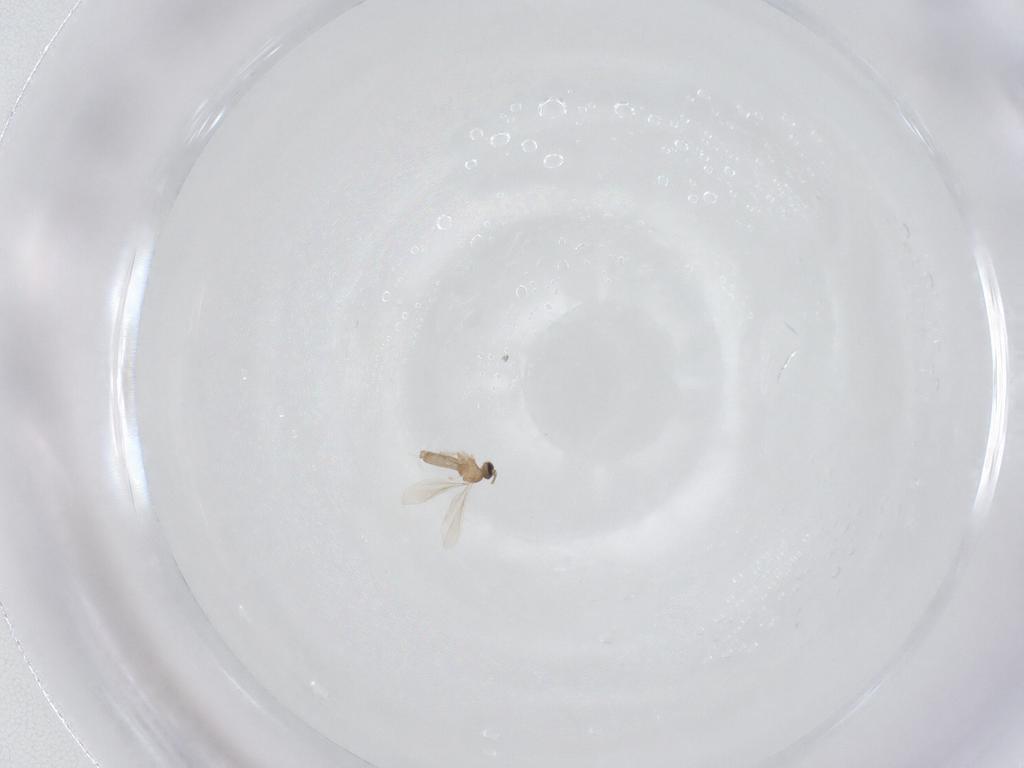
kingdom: Animalia
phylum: Arthropoda
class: Insecta
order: Diptera
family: Cecidomyiidae
